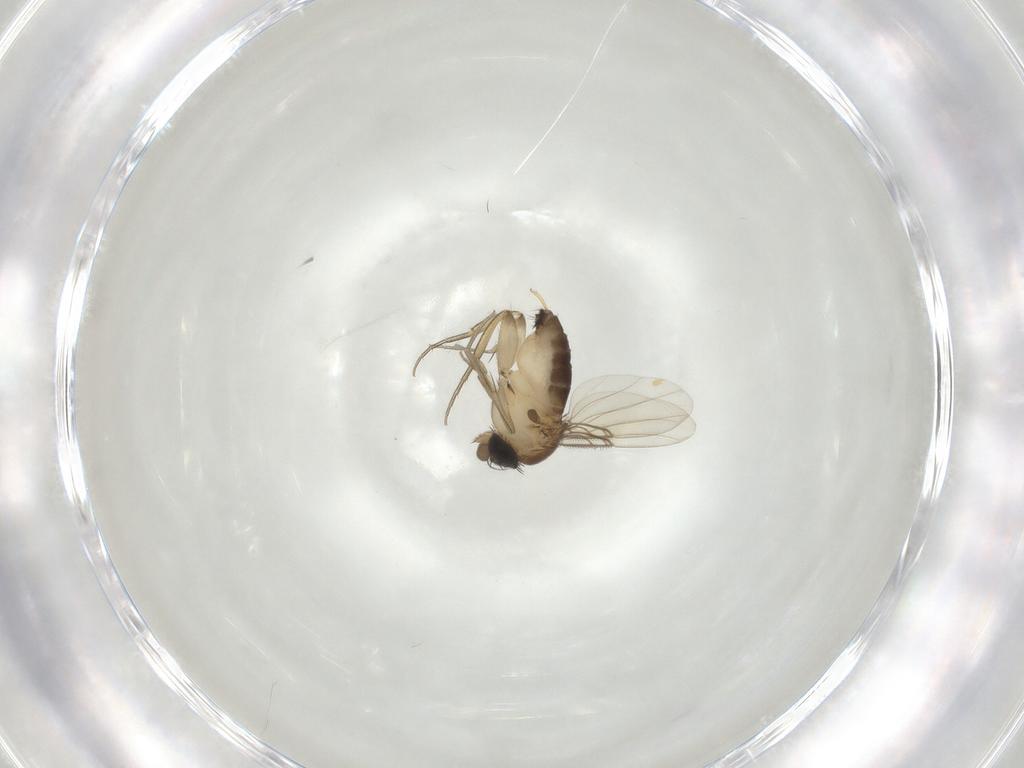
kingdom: Animalia
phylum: Arthropoda
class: Insecta
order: Diptera
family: Phoridae
